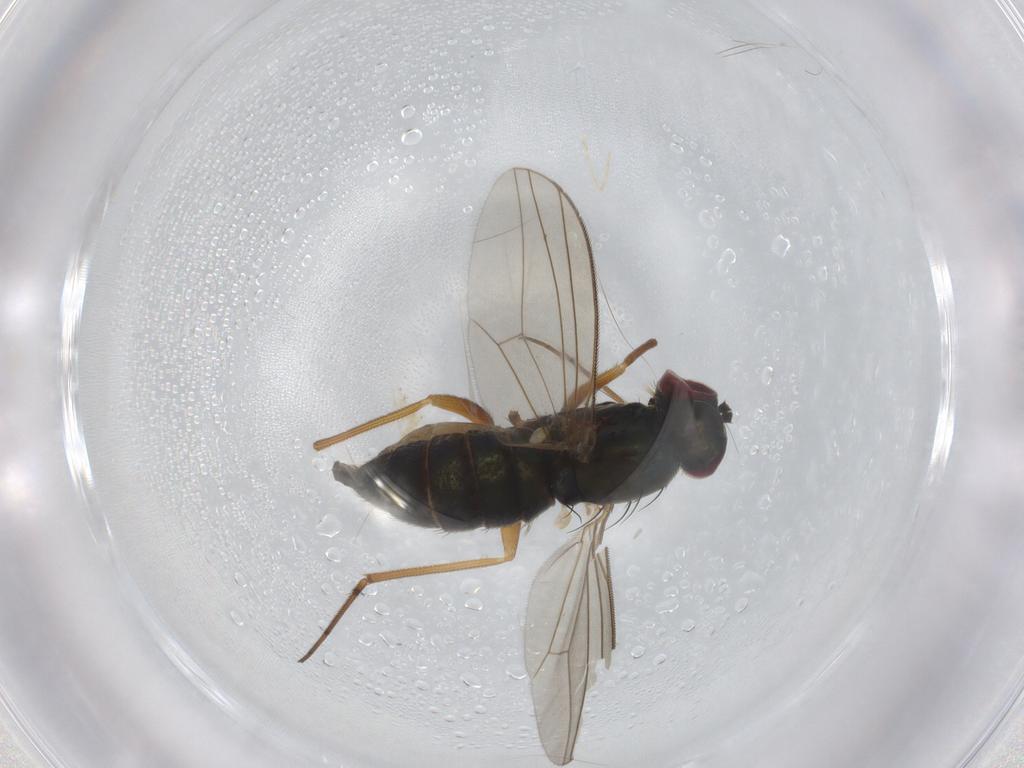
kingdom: Animalia
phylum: Arthropoda
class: Insecta
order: Diptera
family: Dolichopodidae
